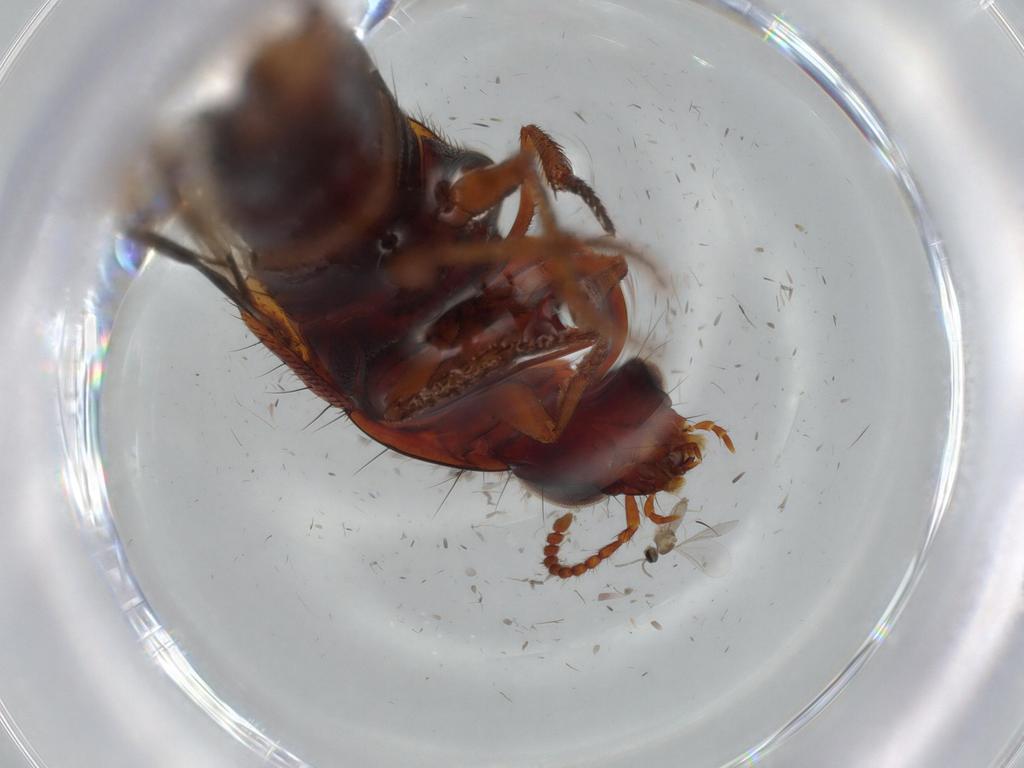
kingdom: Animalia
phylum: Arthropoda
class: Insecta
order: Coleoptera
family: Staphylinidae
